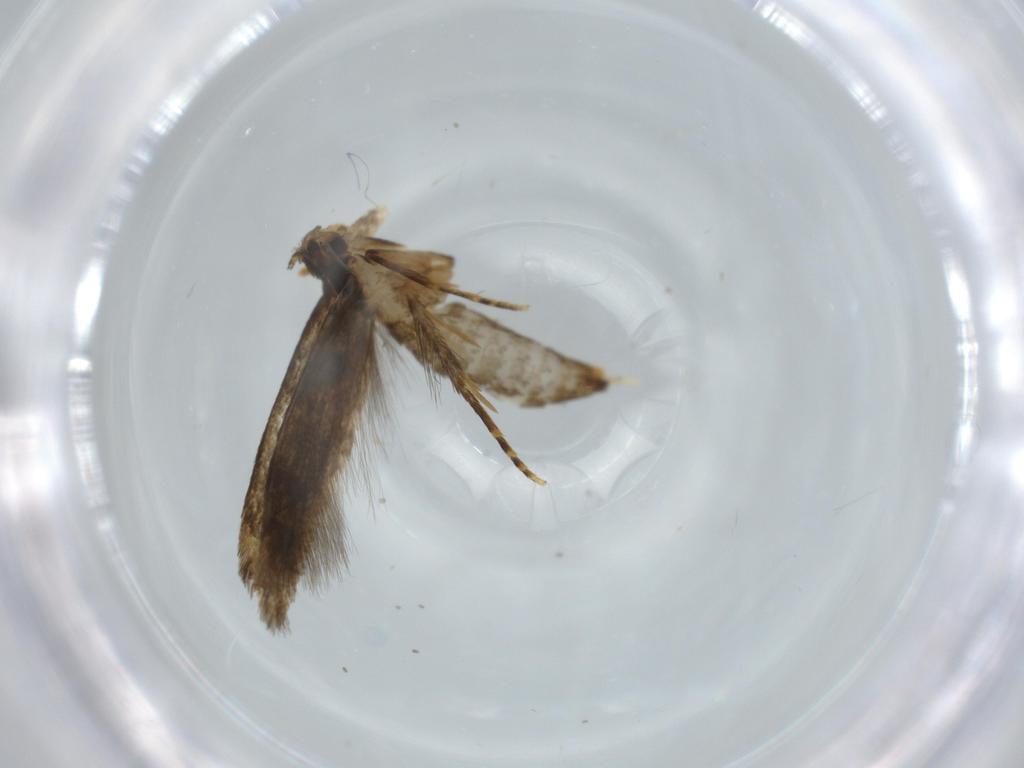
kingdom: Animalia
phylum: Arthropoda
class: Insecta
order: Lepidoptera
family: Tineidae
